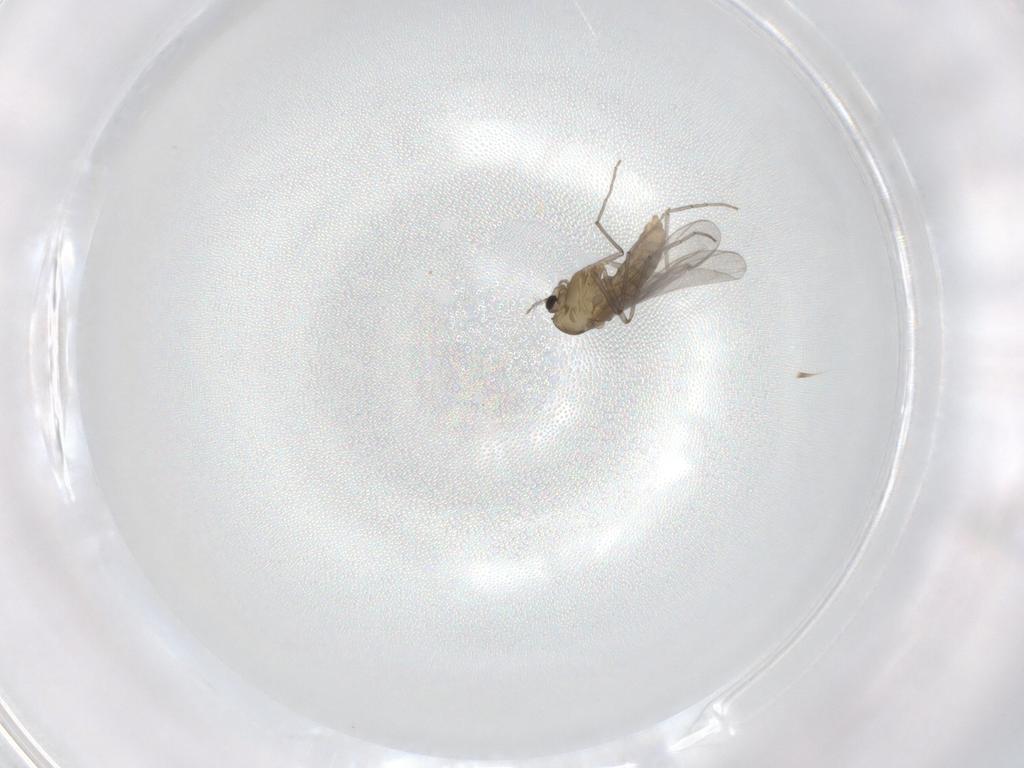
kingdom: Animalia
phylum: Arthropoda
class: Insecta
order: Diptera
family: Chironomidae
